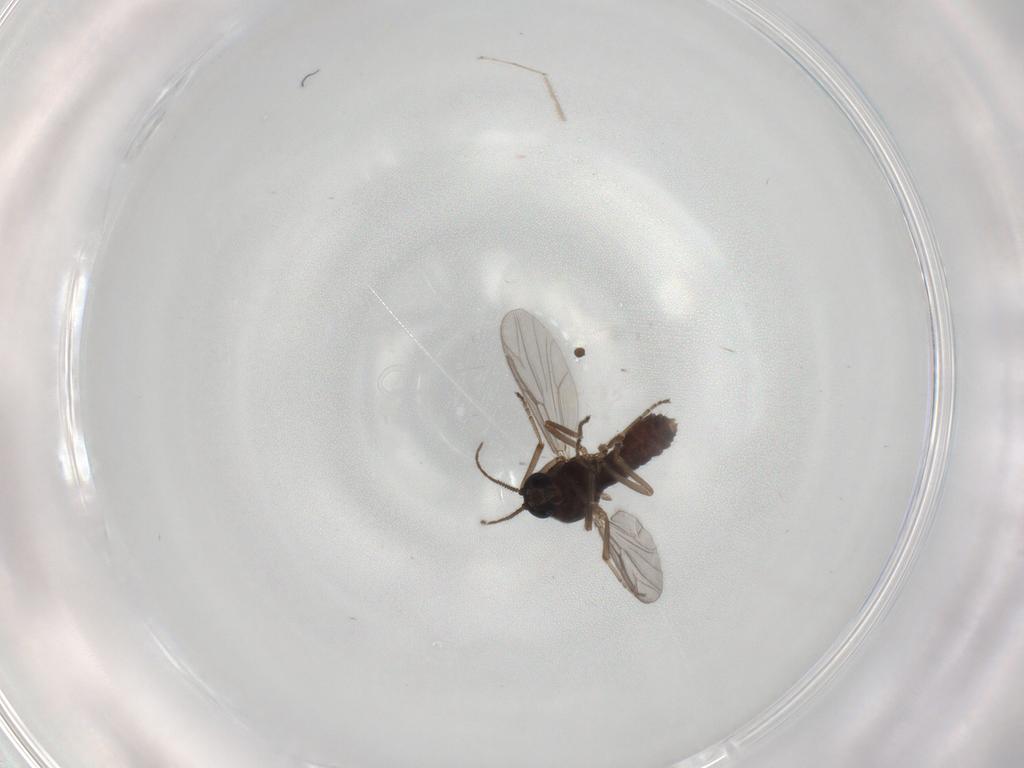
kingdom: Animalia
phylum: Arthropoda
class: Insecta
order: Diptera
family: Ceratopogonidae
